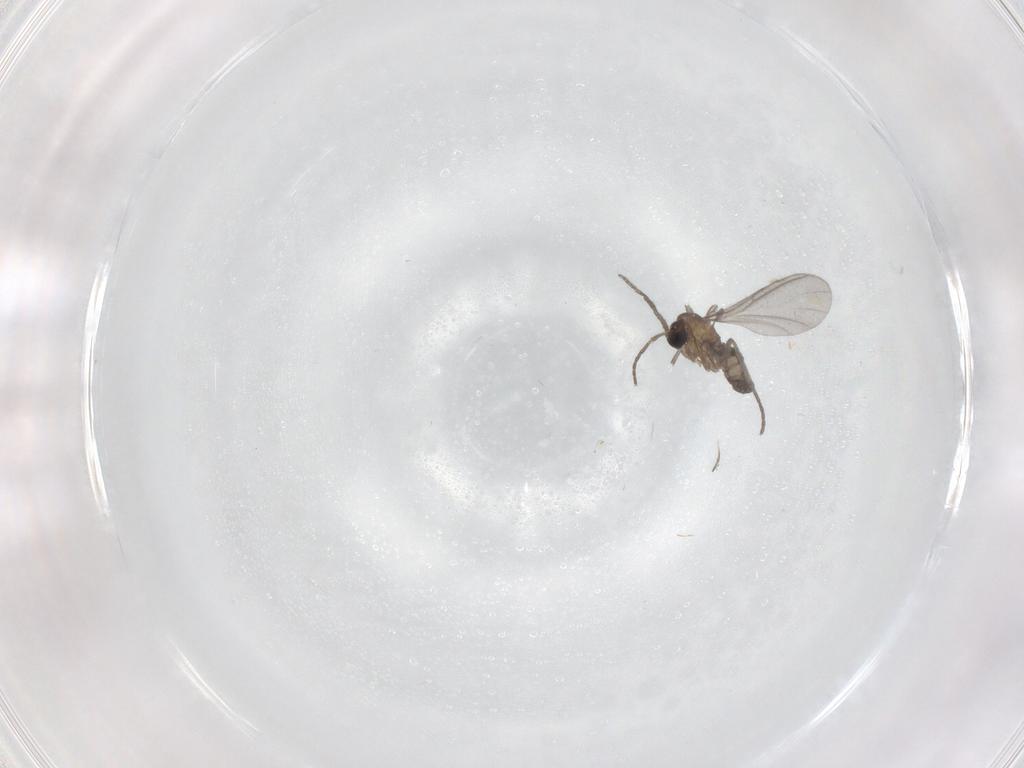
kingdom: Animalia
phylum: Arthropoda
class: Insecta
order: Diptera
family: Sciaridae
